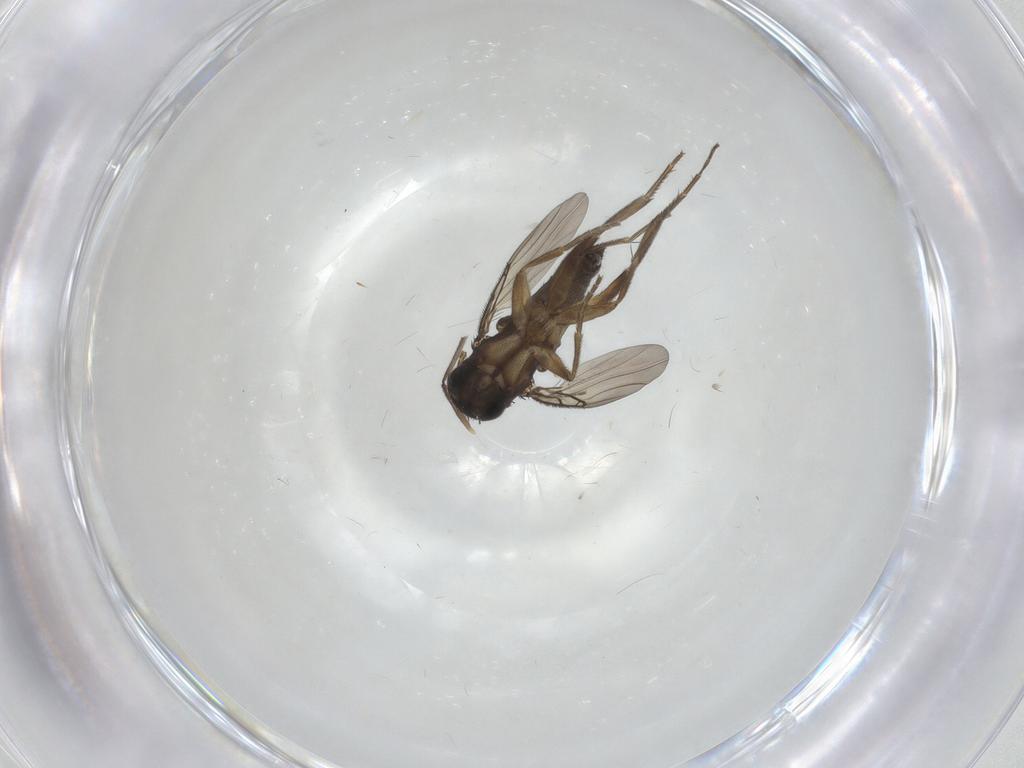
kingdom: Animalia
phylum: Arthropoda
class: Insecta
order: Diptera
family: Phoridae
